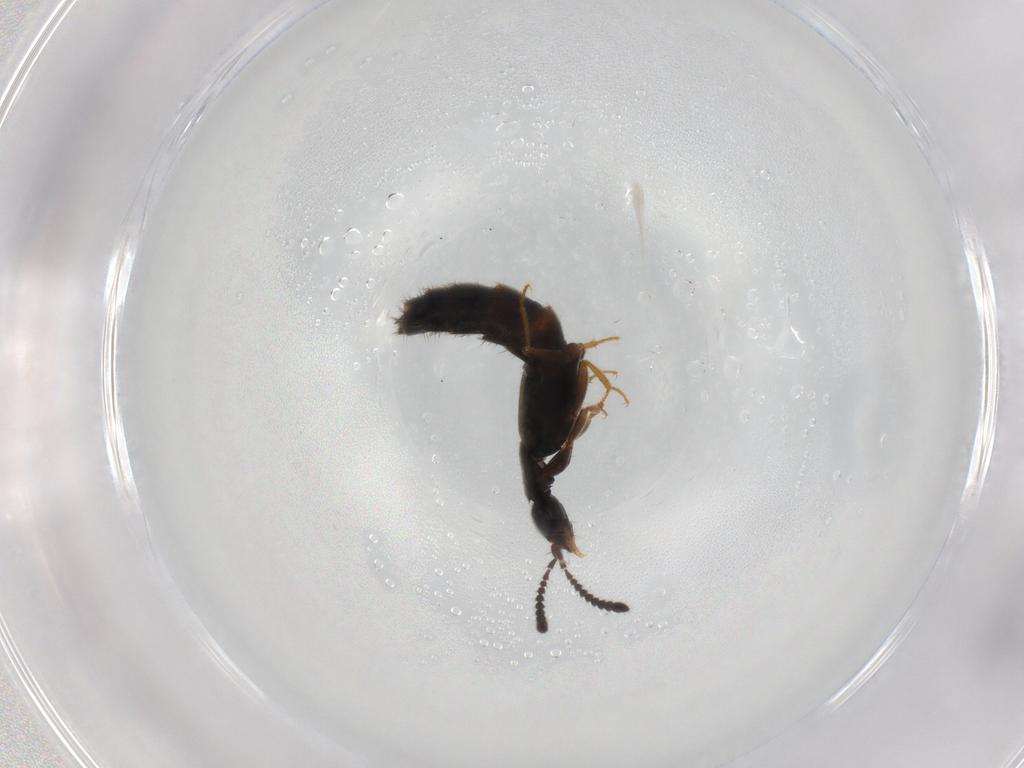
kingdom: Animalia
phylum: Arthropoda
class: Insecta
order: Coleoptera
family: Staphylinidae
